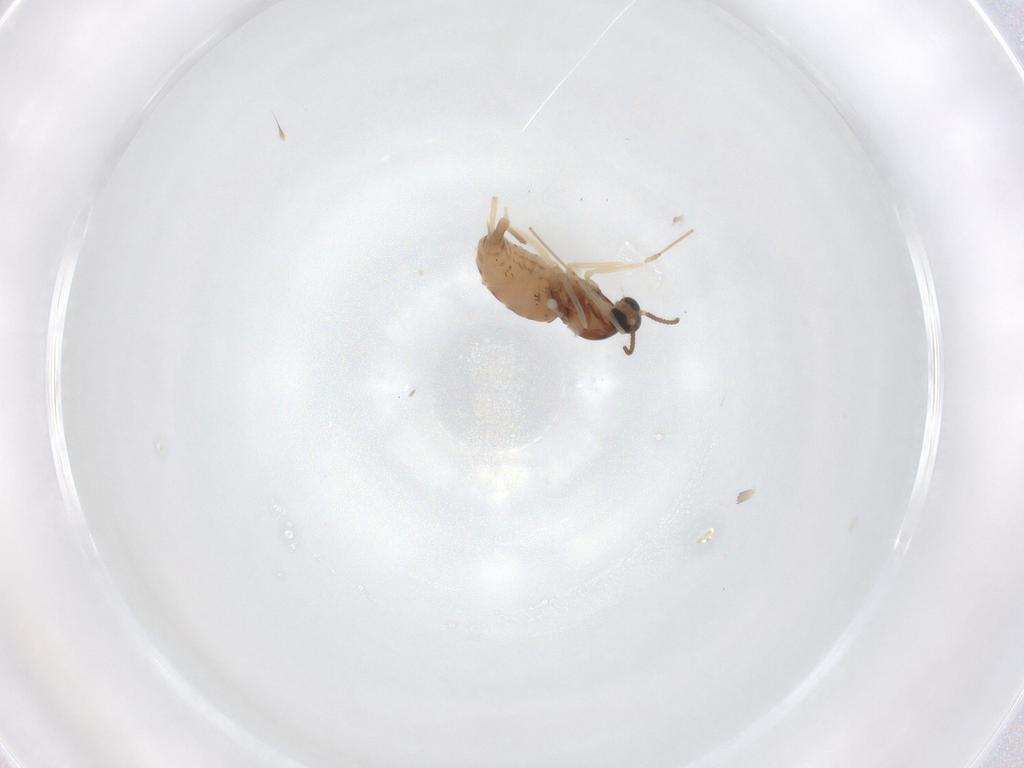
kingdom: Animalia
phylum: Arthropoda
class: Insecta
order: Diptera
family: Cecidomyiidae
